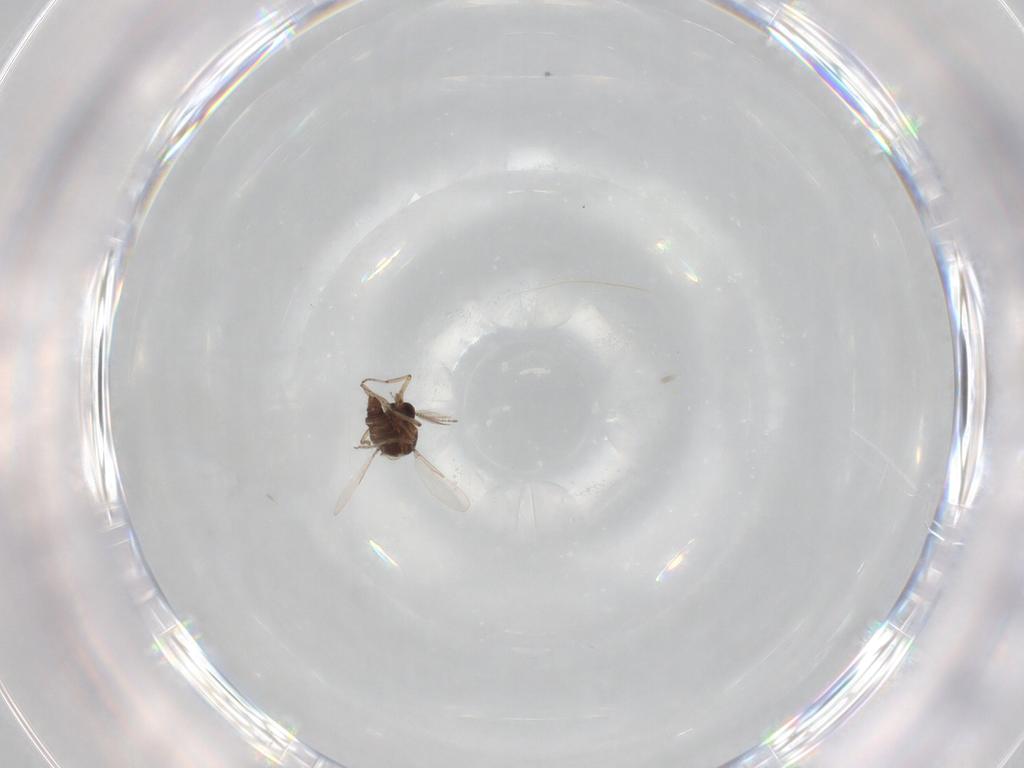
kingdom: Animalia
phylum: Arthropoda
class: Insecta
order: Diptera
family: Ceratopogonidae
